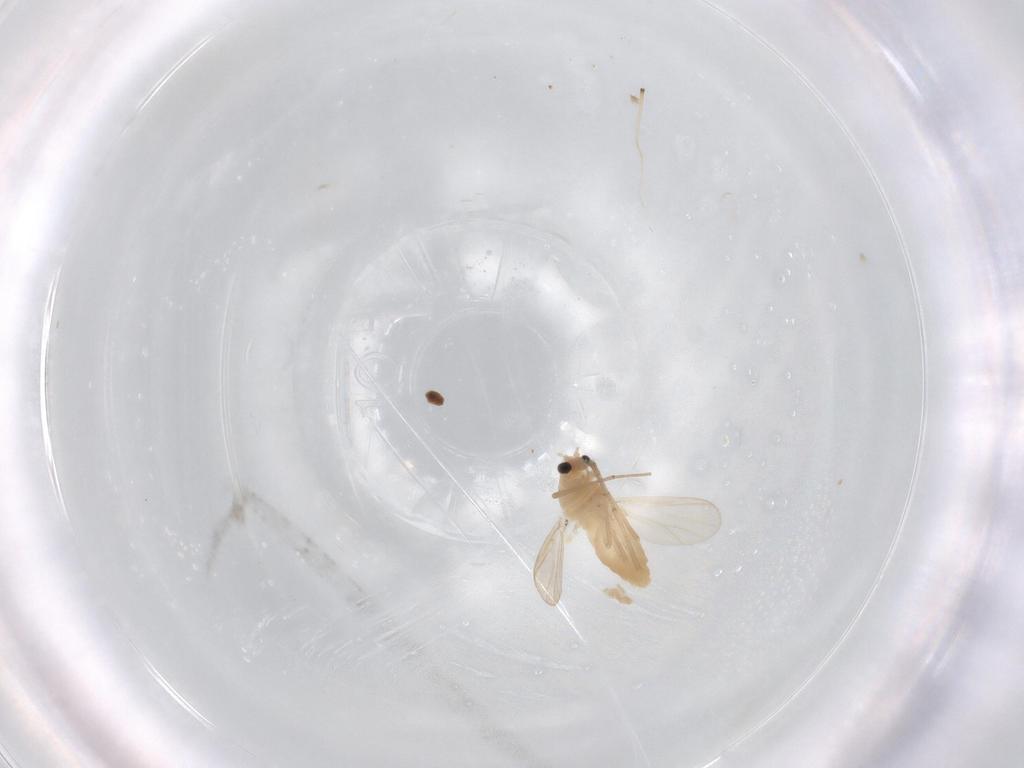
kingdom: Animalia
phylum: Arthropoda
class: Insecta
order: Diptera
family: Chironomidae
